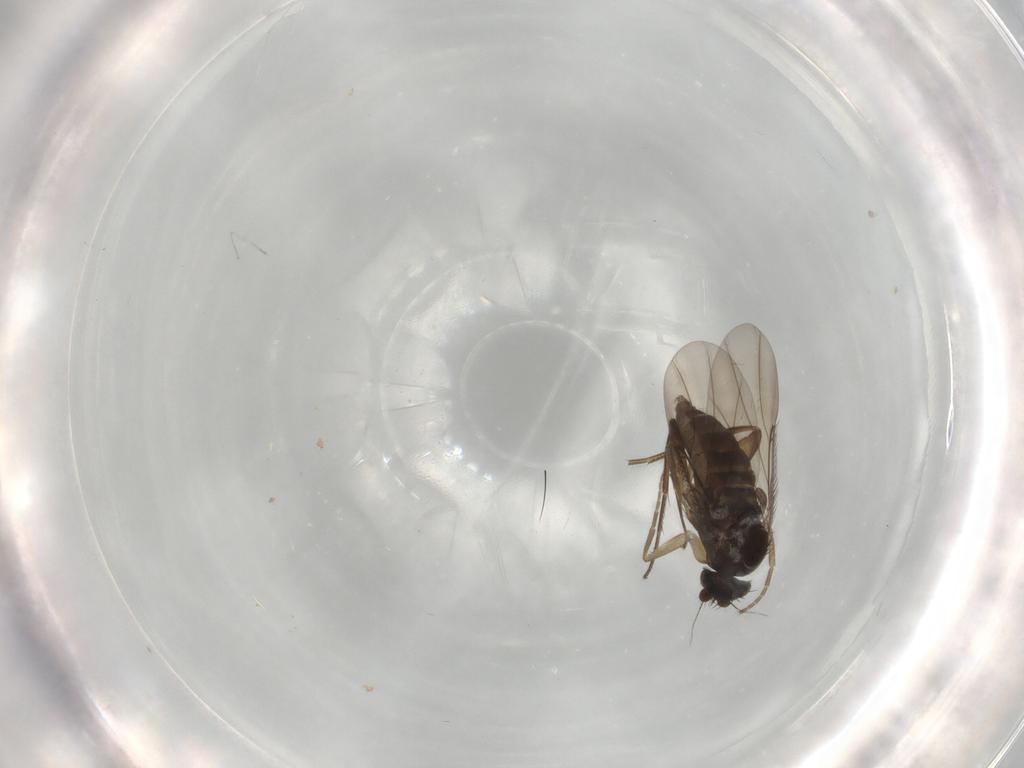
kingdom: Animalia
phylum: Arthropoda
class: Insecta
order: Diptera
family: Phoridae
